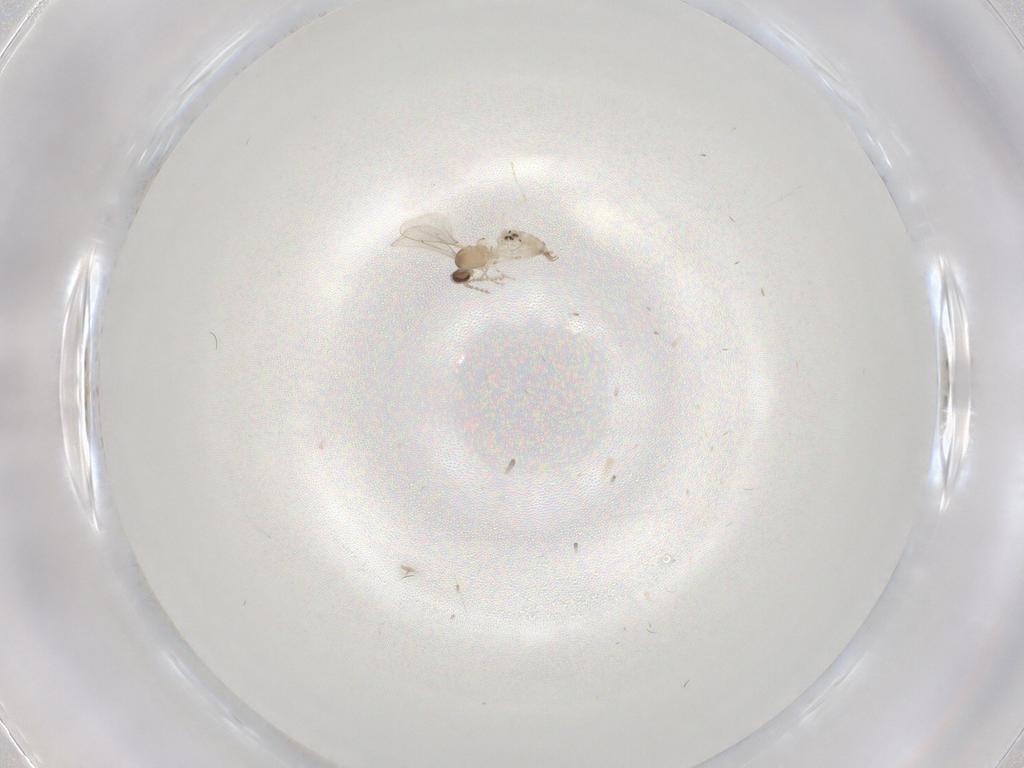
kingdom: Animalia
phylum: Arthropoda
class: Insecta
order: Diptera
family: Cecidomyiidae
